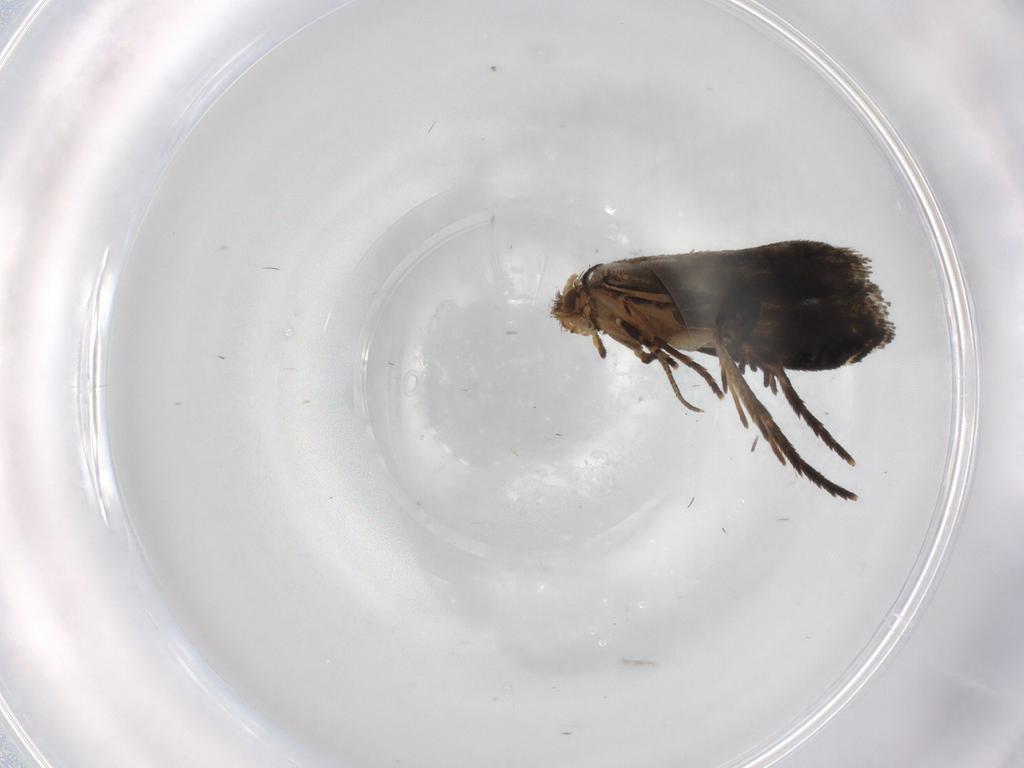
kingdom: Animalia
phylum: Arthropoda
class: Insecta
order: Lepidoptera
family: Crambidae
